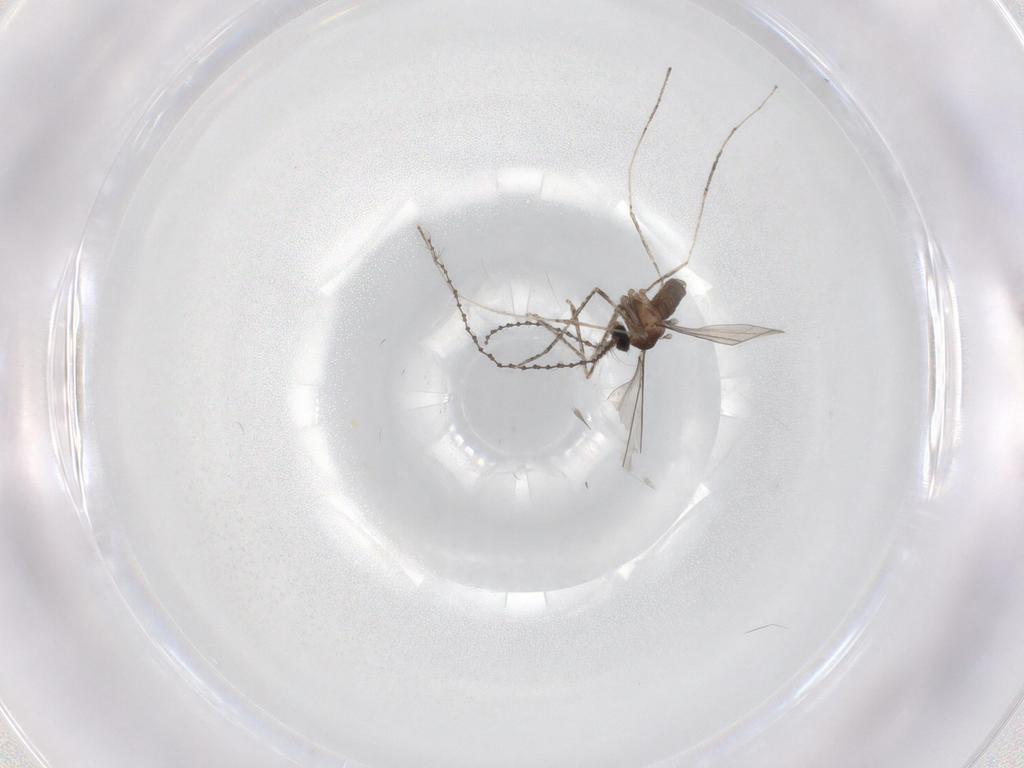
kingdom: Animalia
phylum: Arthropoda
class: Insecta
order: Diptera
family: Cecidomyiidae
